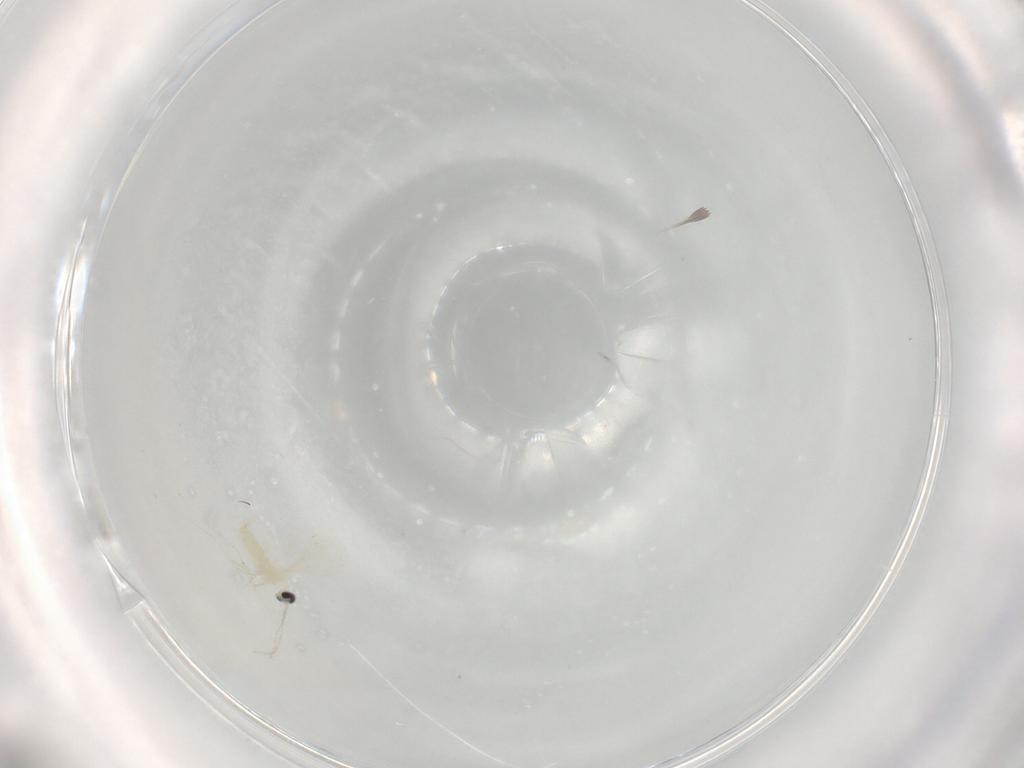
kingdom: Animalia
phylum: Arthropoda
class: Insecta
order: Diptera
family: Cecidomyiidae
